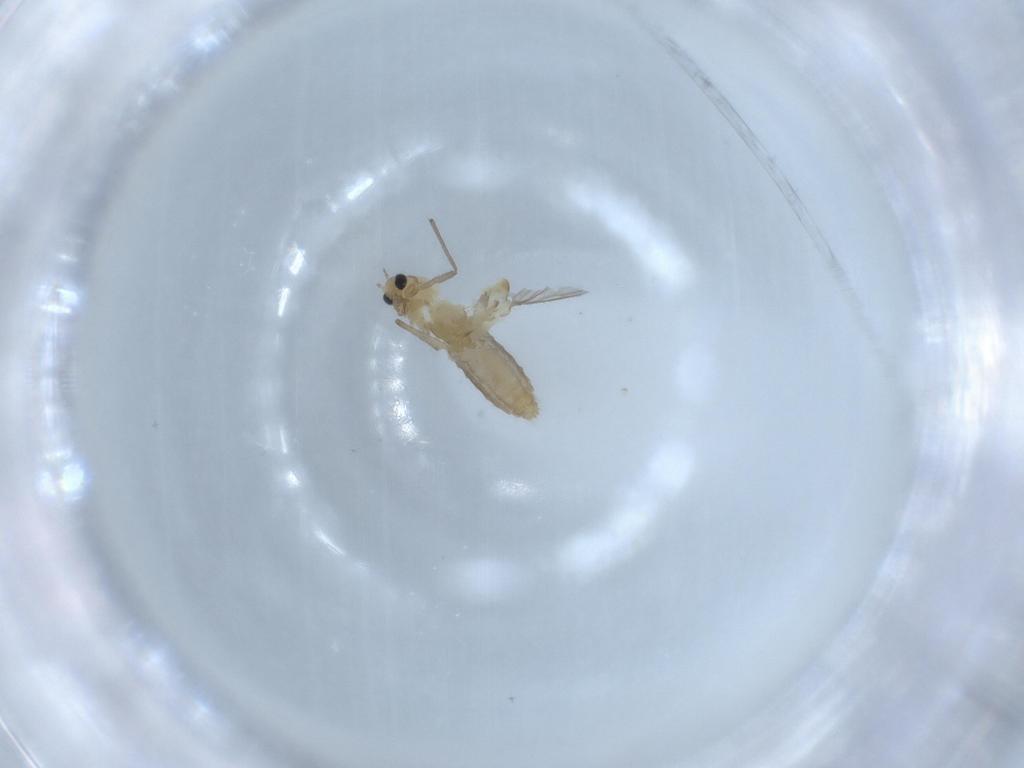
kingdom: Animalia
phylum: Arthropoda
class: Insecta
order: Diptera
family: Chironomidae
